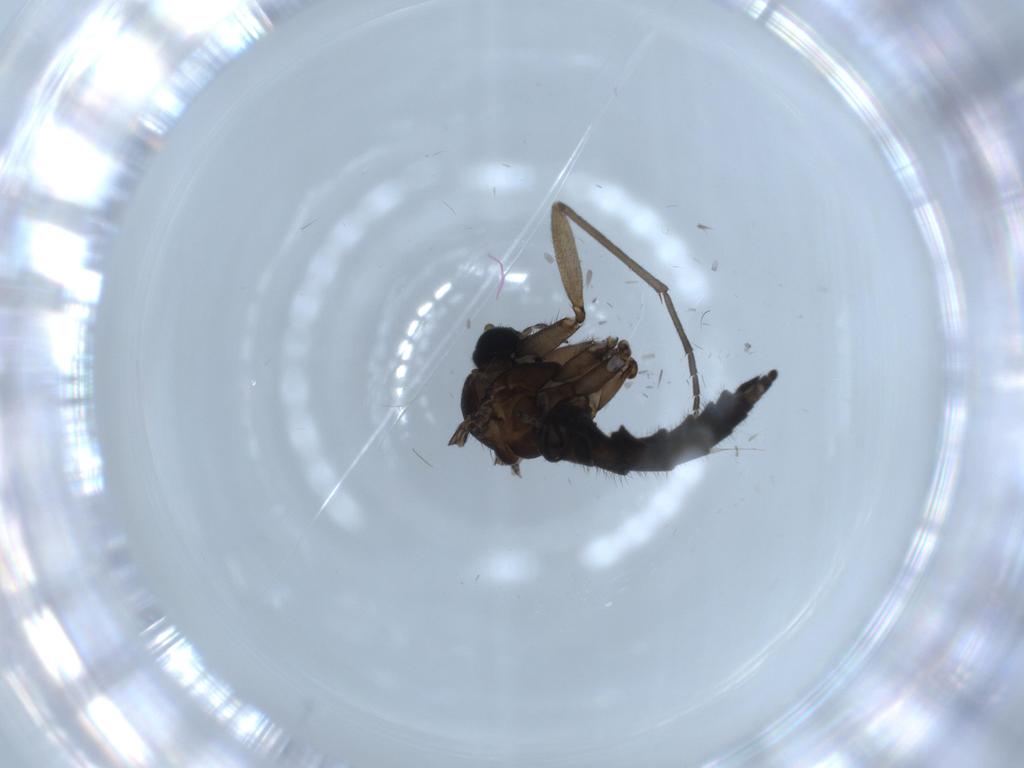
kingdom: Animalia
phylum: Arthropoda
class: Insecta
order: Diptera
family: Sciaridae
